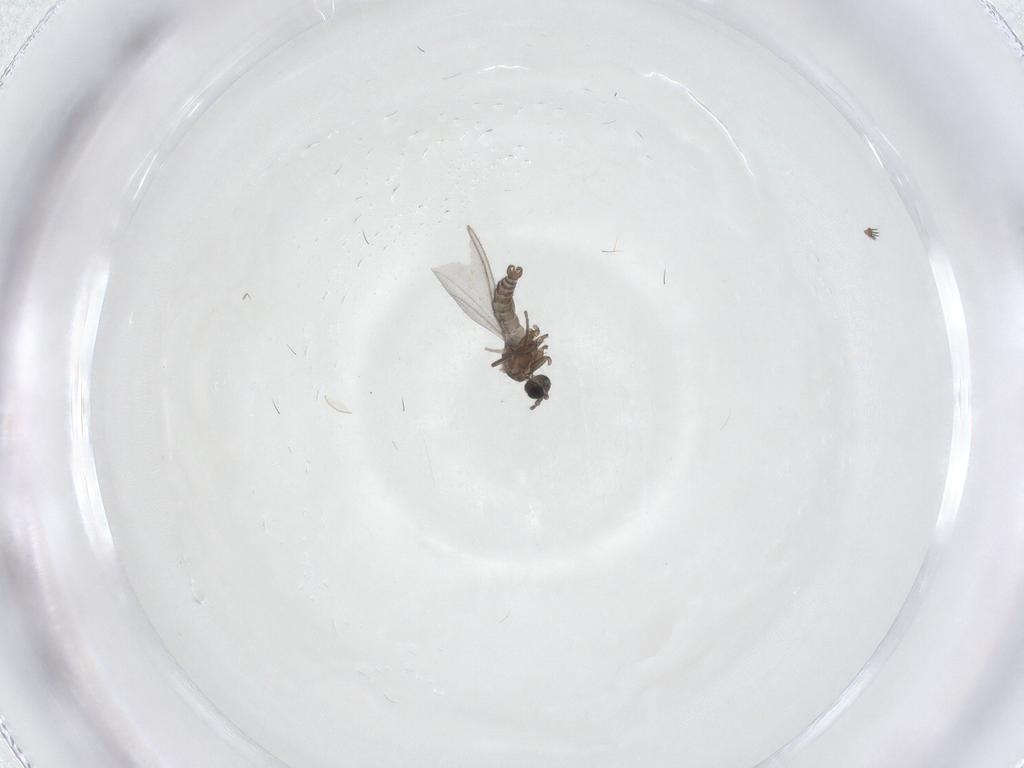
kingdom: Animalia
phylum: Arthropoda
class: Insecta
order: Diptera
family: Phoridae
